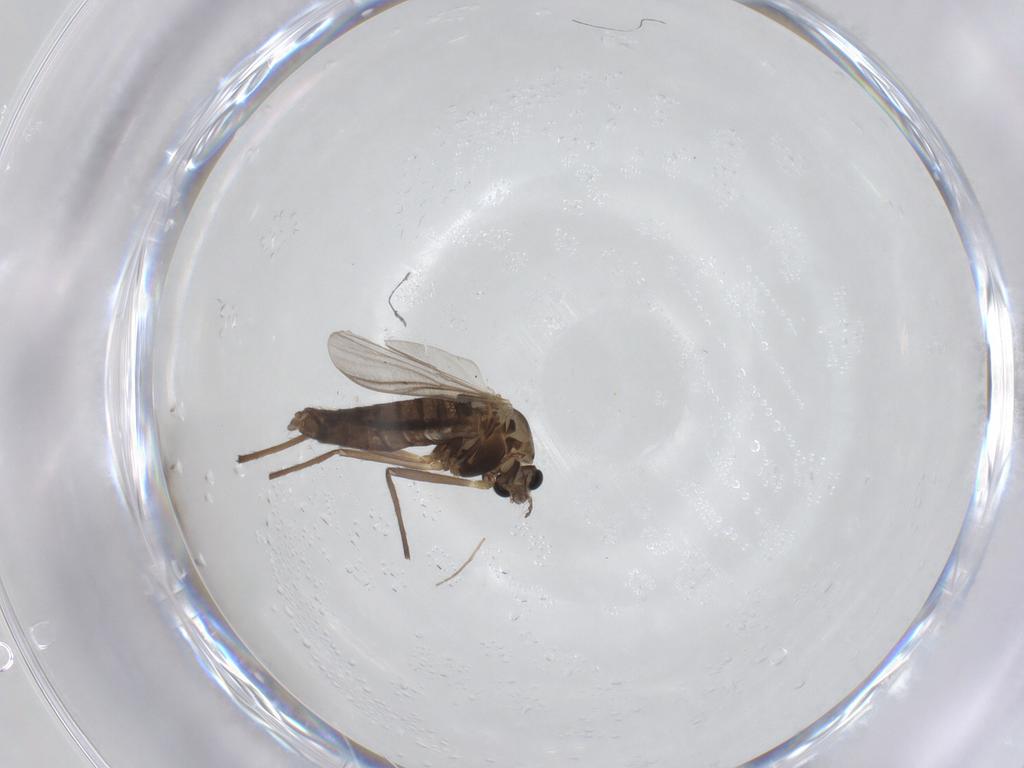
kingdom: Animalia
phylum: Arthropoda
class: Insecta
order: Diptera
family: Chironomidae
